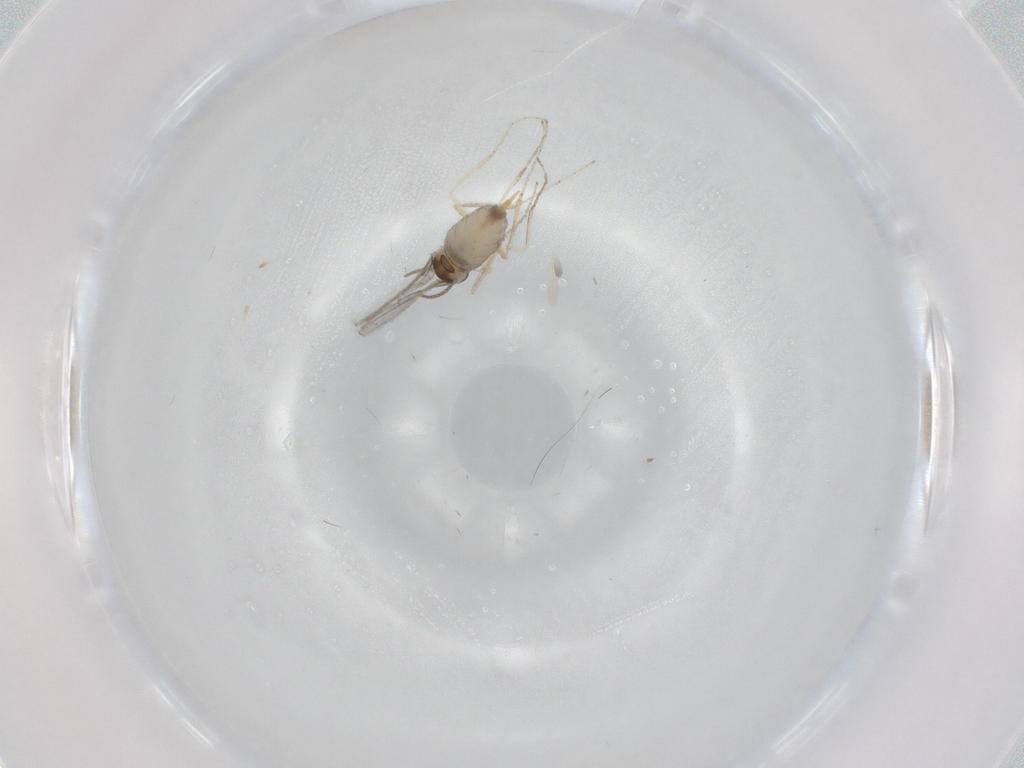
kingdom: Animalia
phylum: Arthropoda
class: Insecta
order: Diptera
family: Cecidomyiidae
